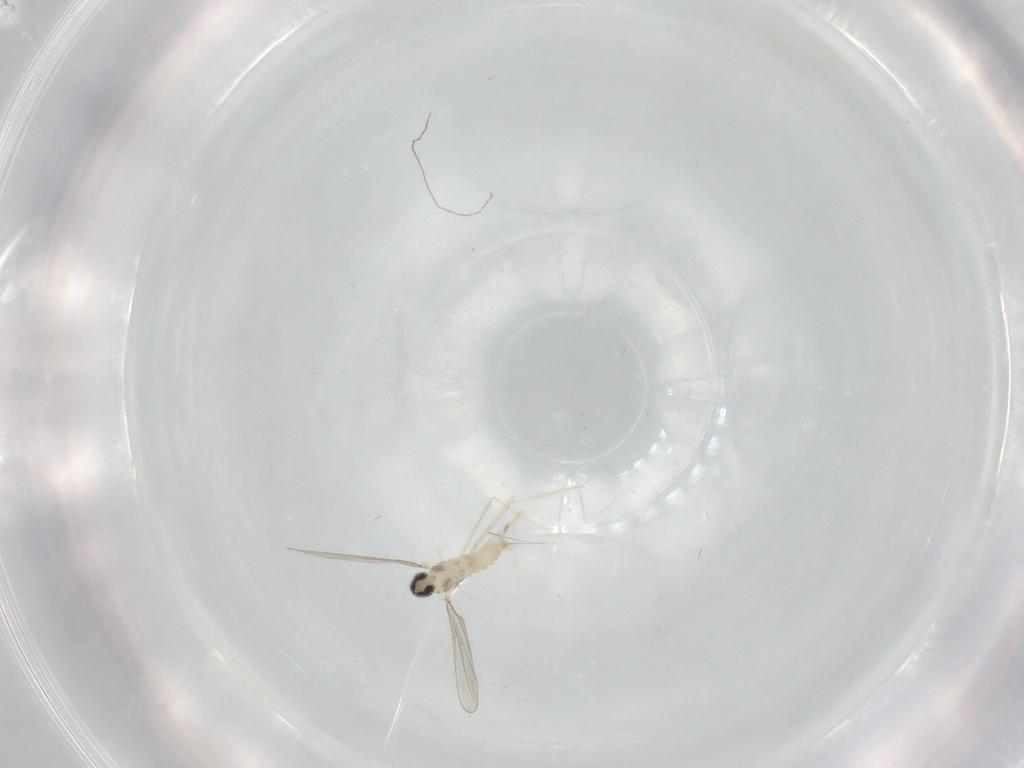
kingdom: Animalia
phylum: Arthropoda
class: Insecta
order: Diptera
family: Cecidomyiidae
